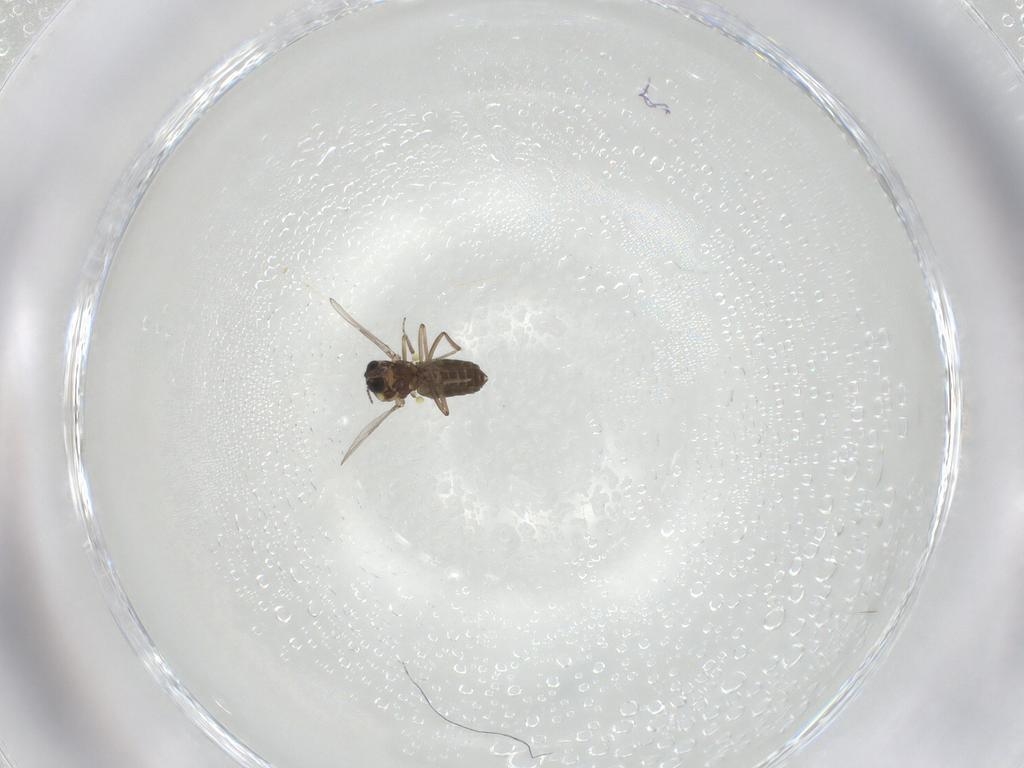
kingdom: Animalia
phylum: Arthropoda
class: Insecta
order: Diptera
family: Ceratopogonidae
